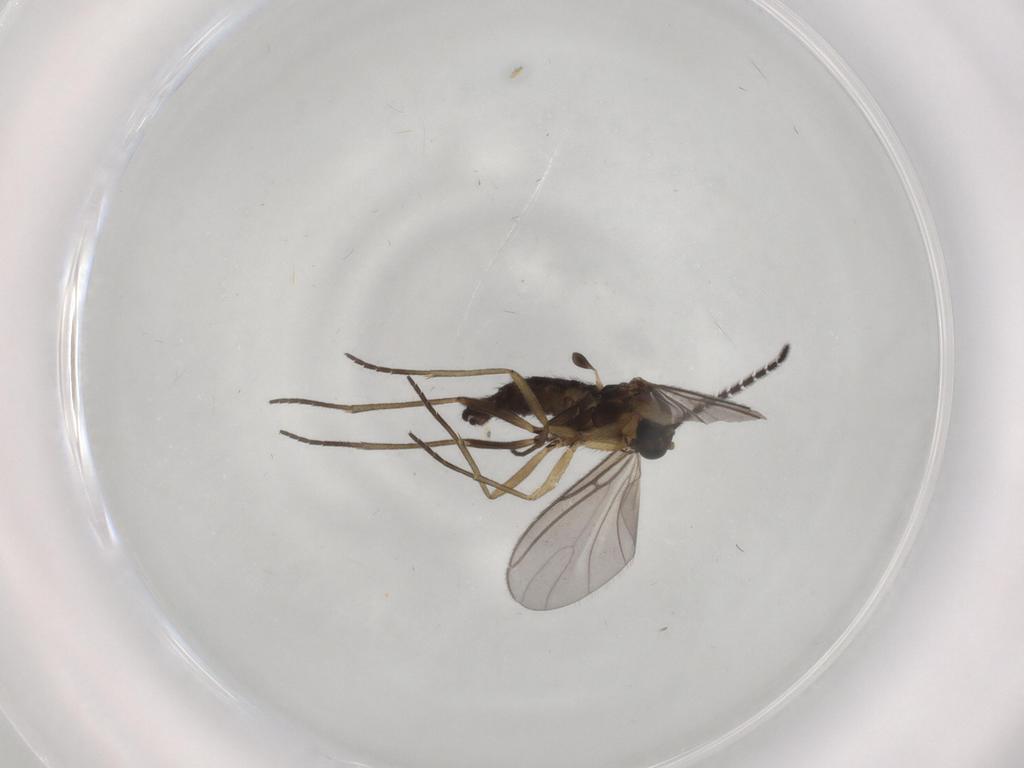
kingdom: Animalia
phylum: Arthropoda
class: Insecta
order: Diptera
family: Sciaridae
